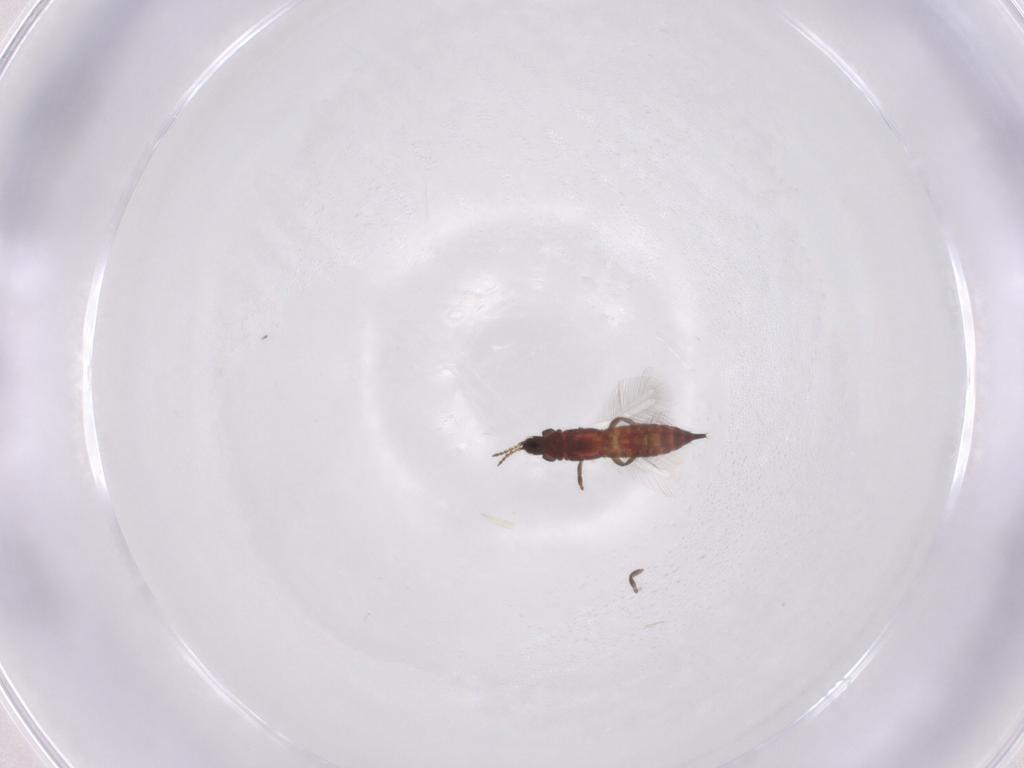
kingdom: Animalia
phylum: Arthropoda
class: Insecta
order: Thysanoptera
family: Phlaeothripidae
